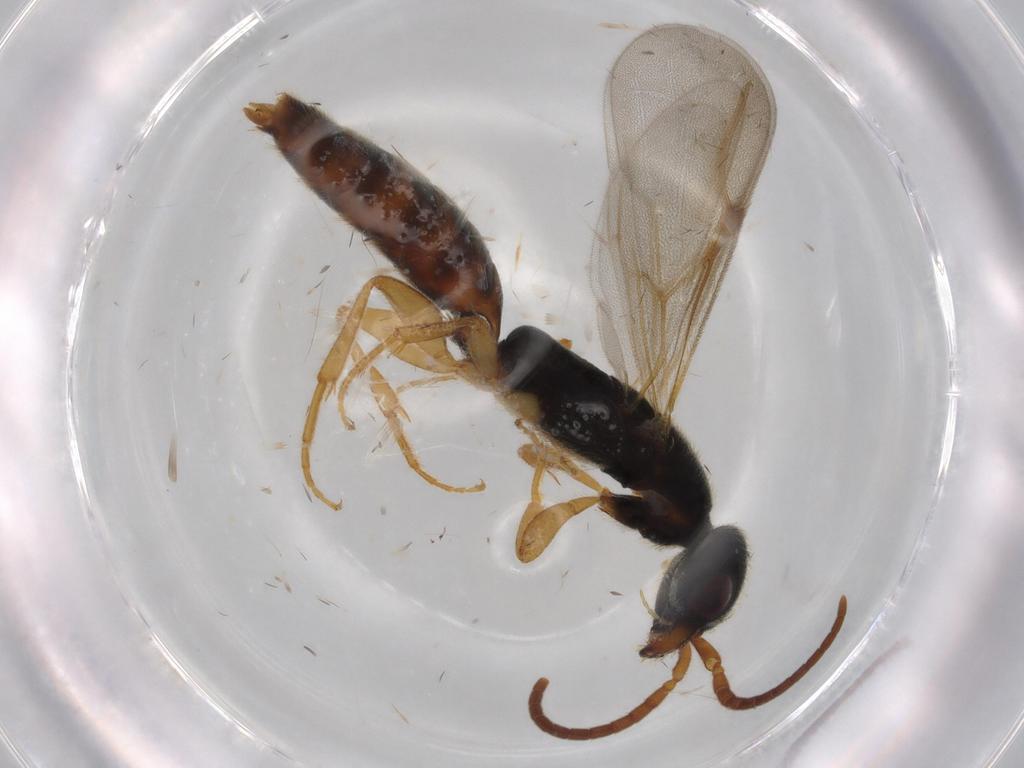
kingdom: Animalia
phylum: Arthropoda
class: Insecta
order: Hymenoptera
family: Bethylidae
